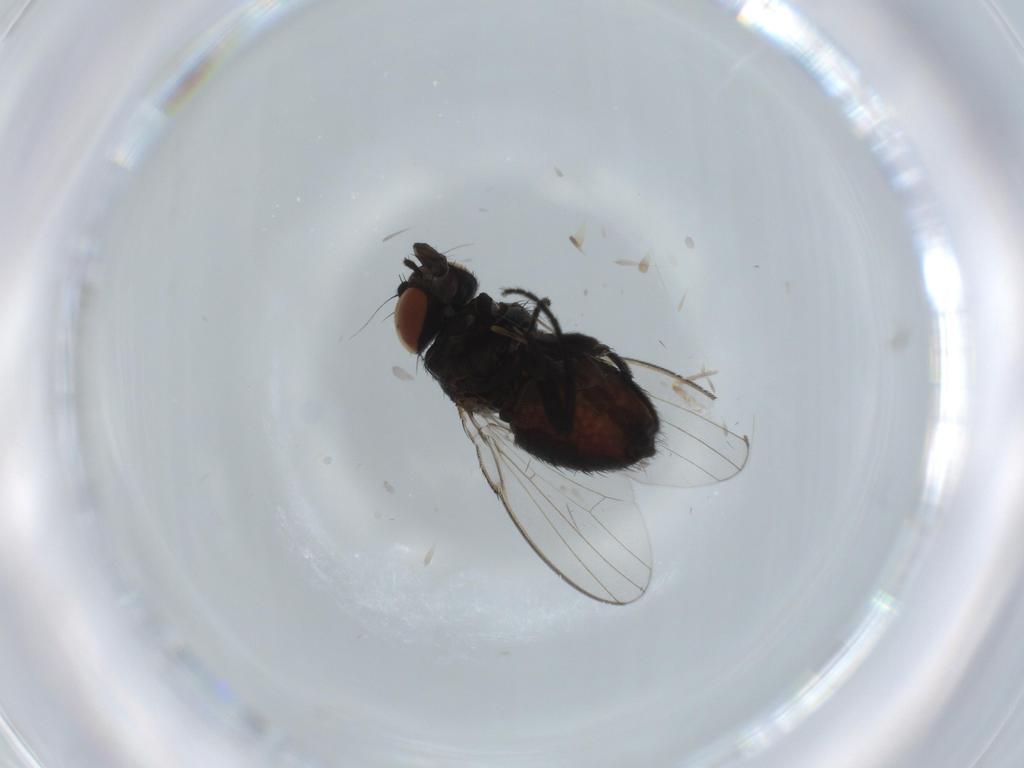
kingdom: Animalia
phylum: Arthropoda
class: Insecta
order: Diptera
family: Milichiidae
